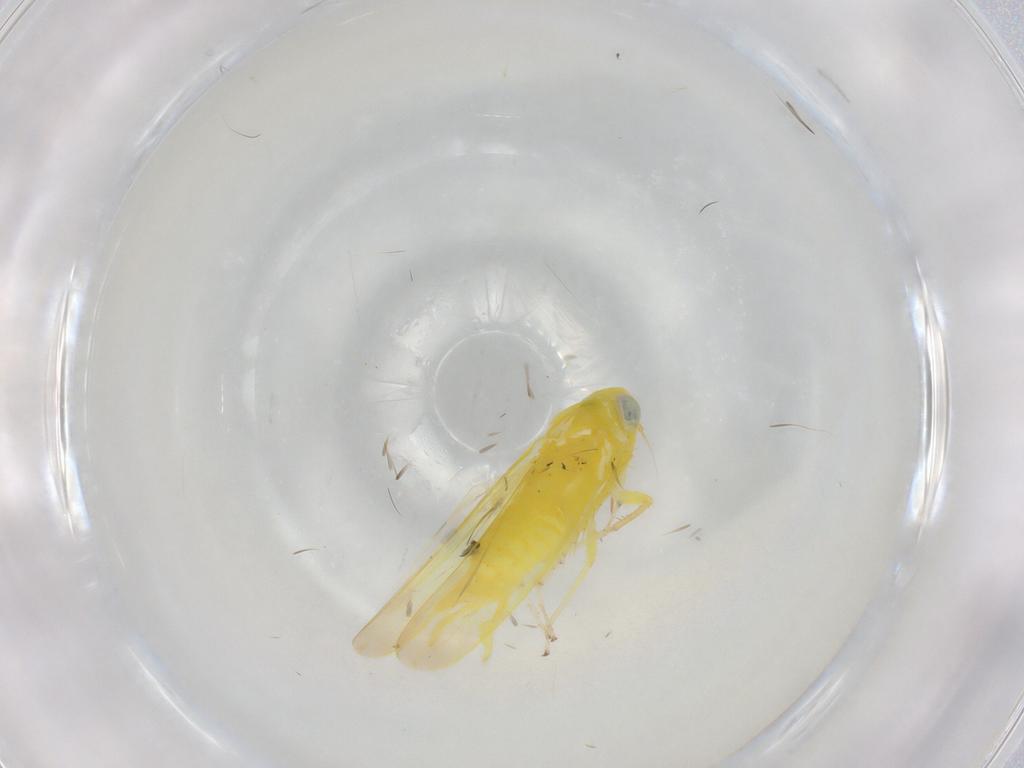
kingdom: Animalia
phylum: Arthropoda
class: Insecta
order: Hemiptera
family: Cicadellidae
